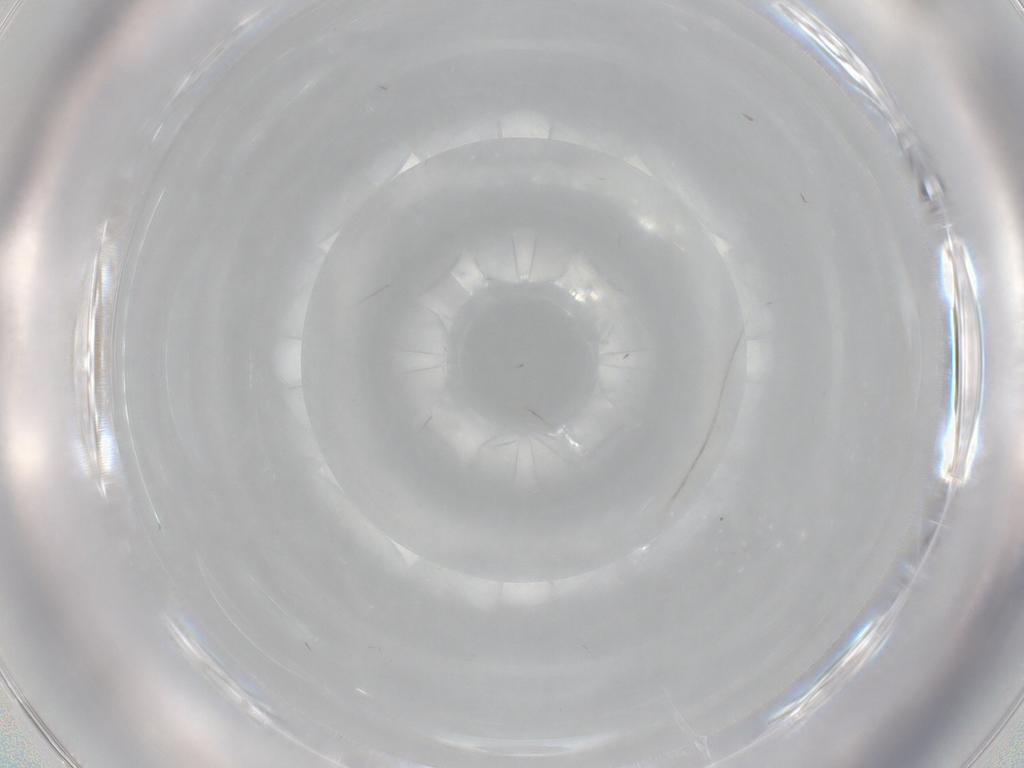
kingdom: Animalia
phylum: Arthropoda
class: Insecta
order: Diptera
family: Cecidomyiidae
